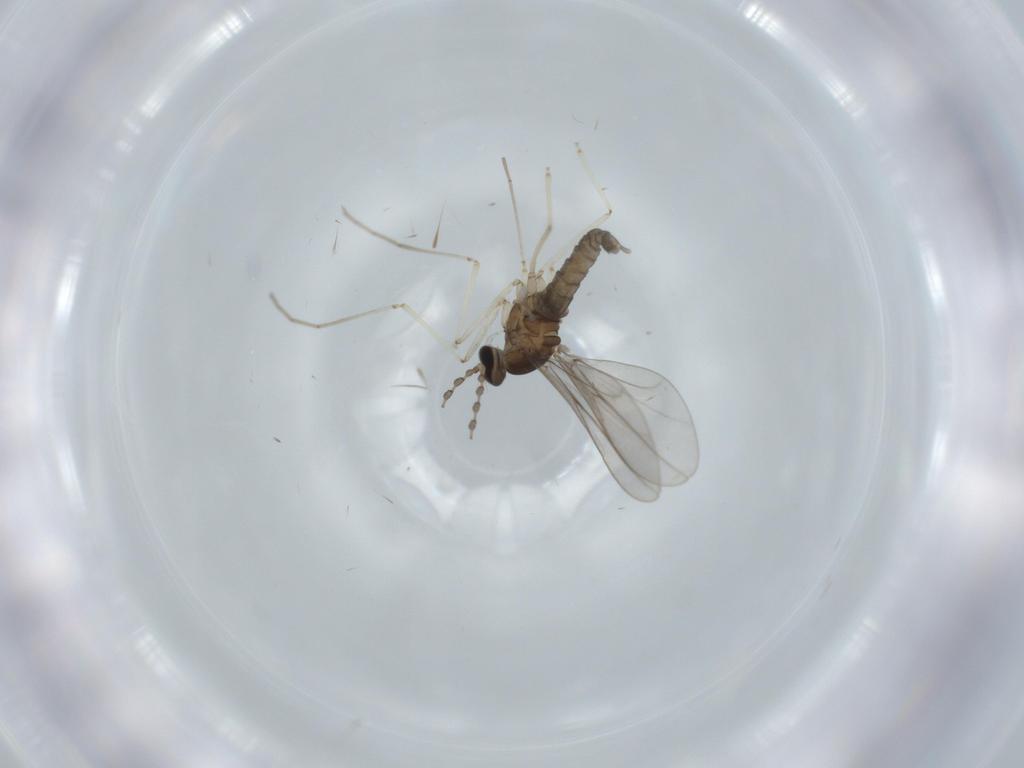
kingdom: Animalia
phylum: Arthropoda
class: Insecta
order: Diptera
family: Cecidomyiidae
